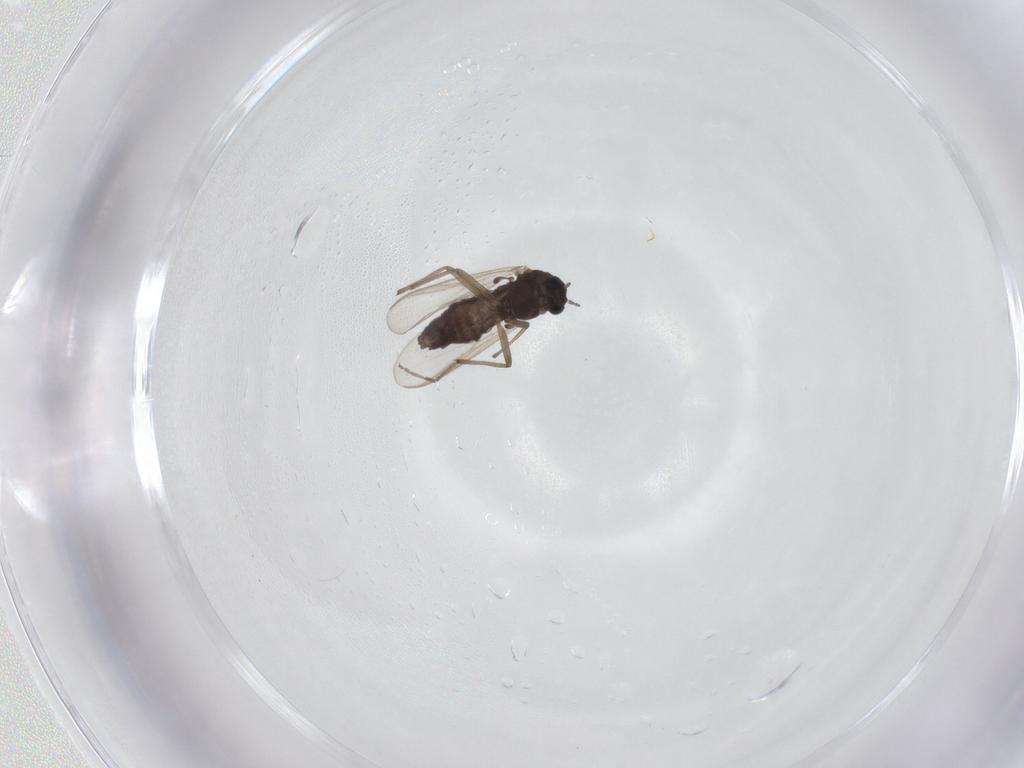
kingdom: Animalia
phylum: Arthropoda
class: Insecta
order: Diptera
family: Chironomidae
